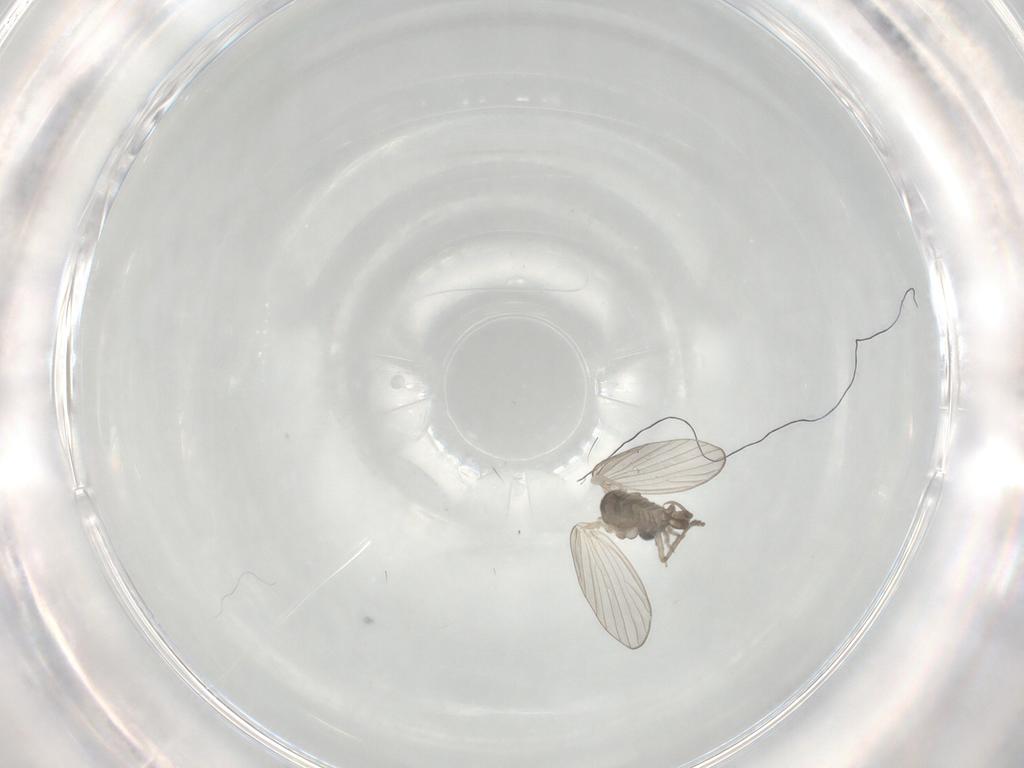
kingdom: Animalia
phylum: Arthropoda
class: Insecta
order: Diptera
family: Psychodidae
